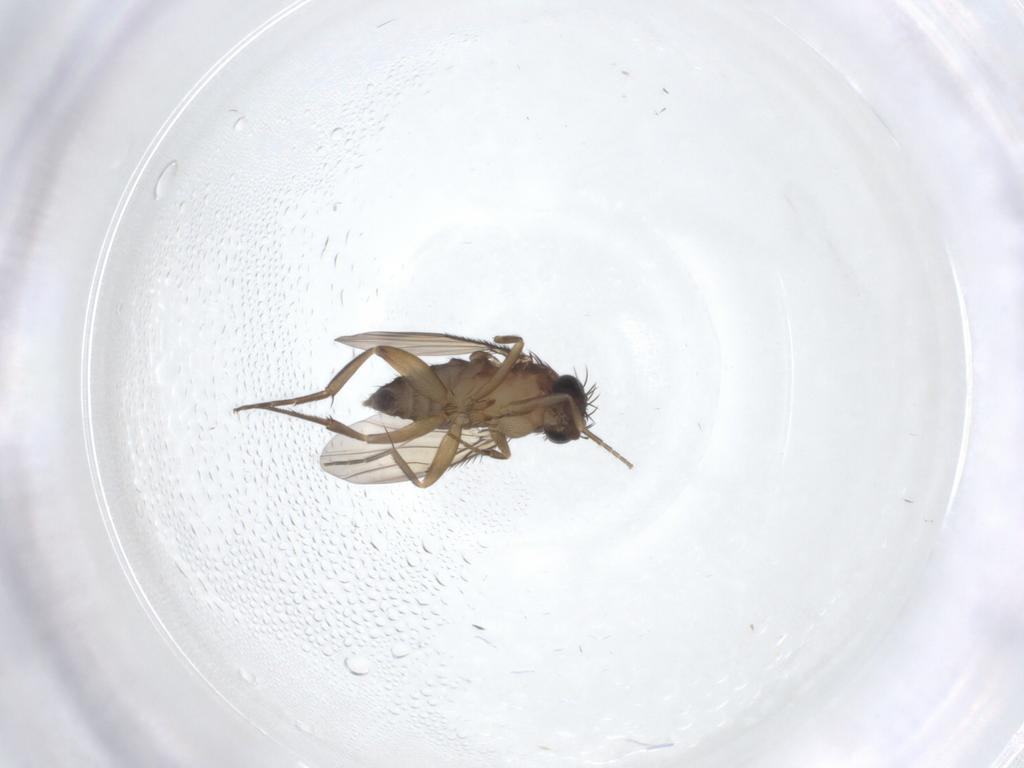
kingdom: Animalia
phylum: Arthropoda
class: Insecta
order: Diptera
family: Phoridae
